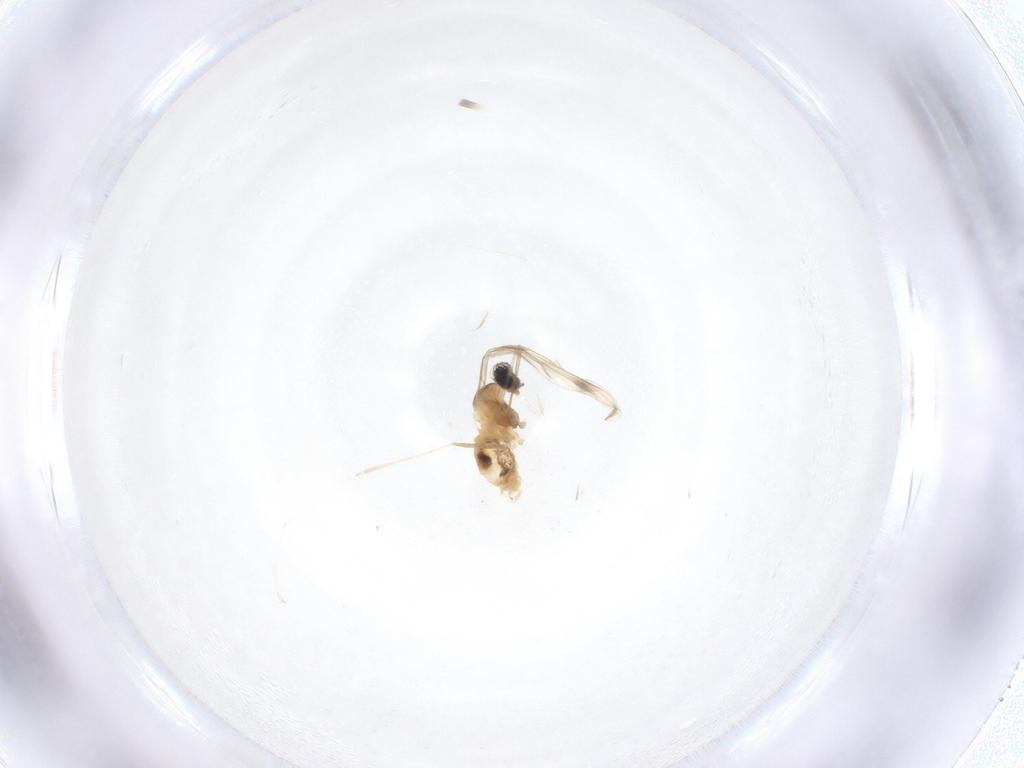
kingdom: Animalia
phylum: Arthropoda
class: Insecta
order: Diptera
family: Cecidomyiidae
